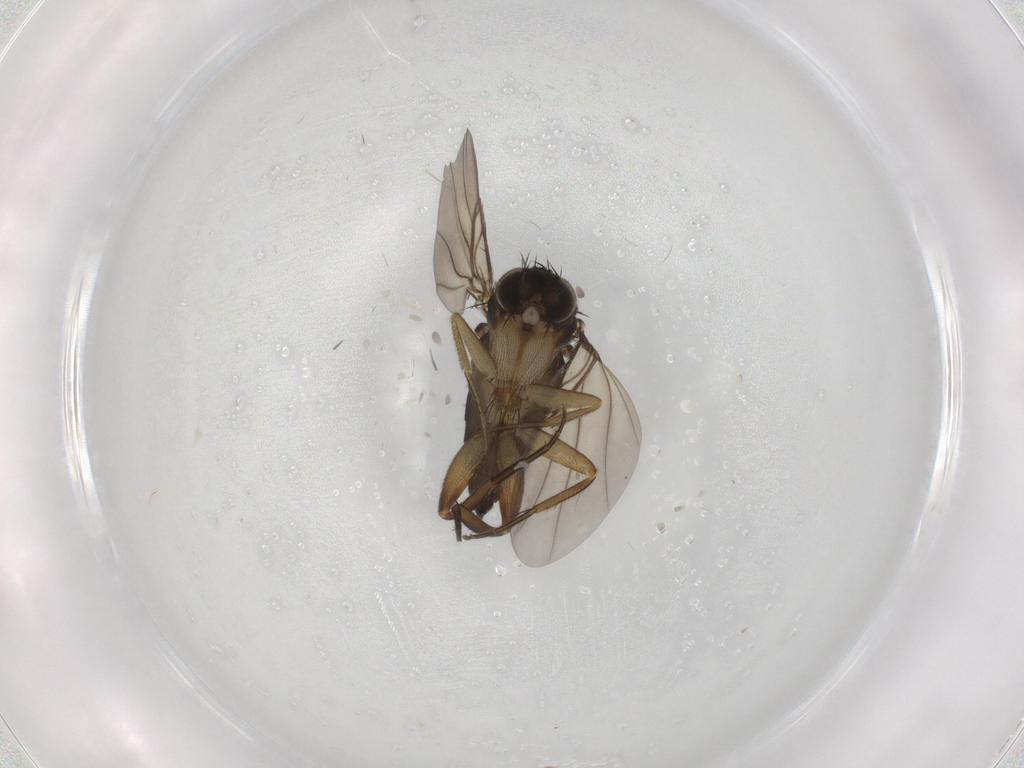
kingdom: Animalia
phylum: Arthropoda
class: Insecta
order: Diptera
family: Phoridae
